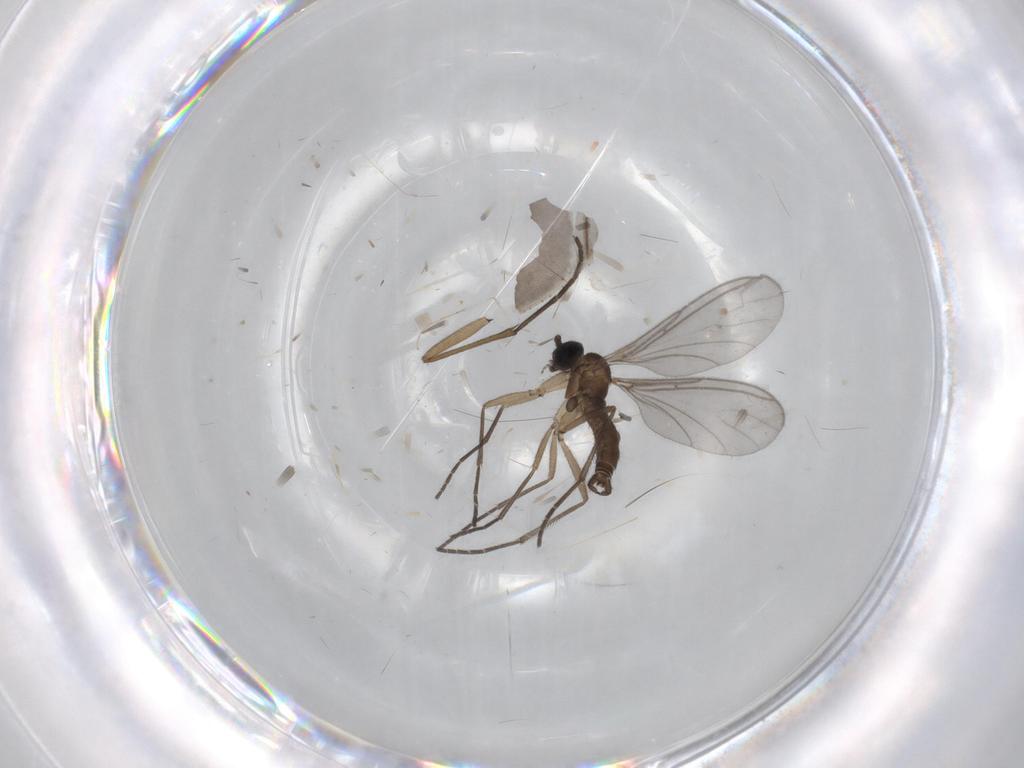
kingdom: Animalia
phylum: Arthropoda
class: Insecta
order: Diptera
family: Sciaridae
